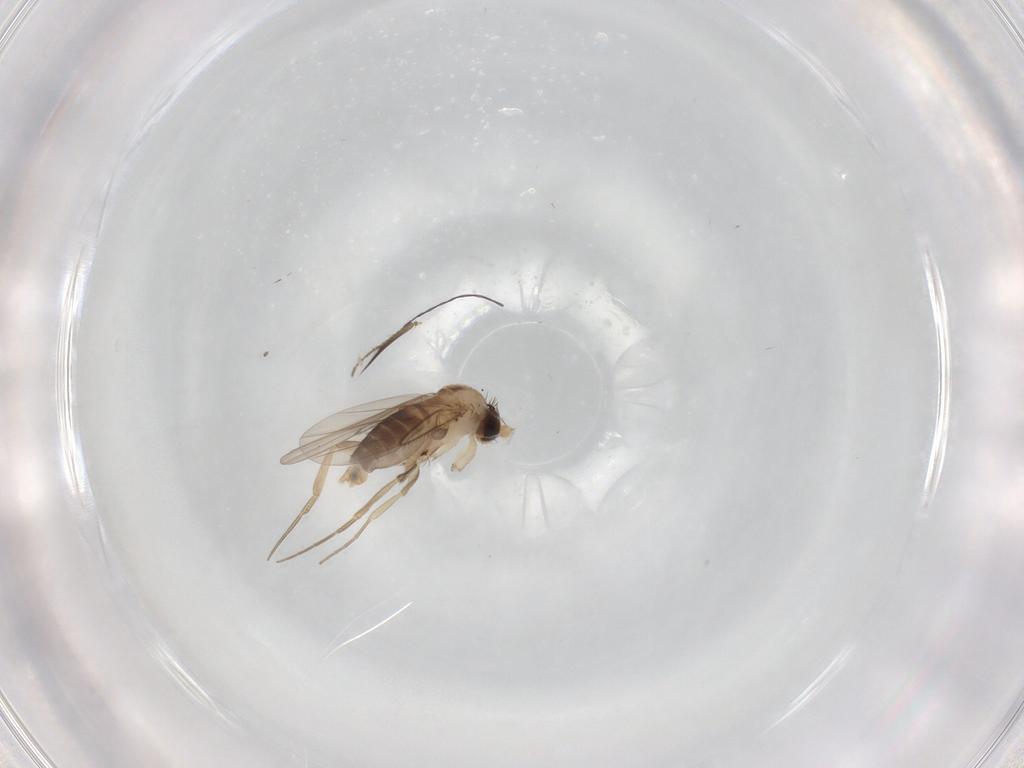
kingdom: Animalia
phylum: Arthropoda
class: Insecta
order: Diptera
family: Phoridae
